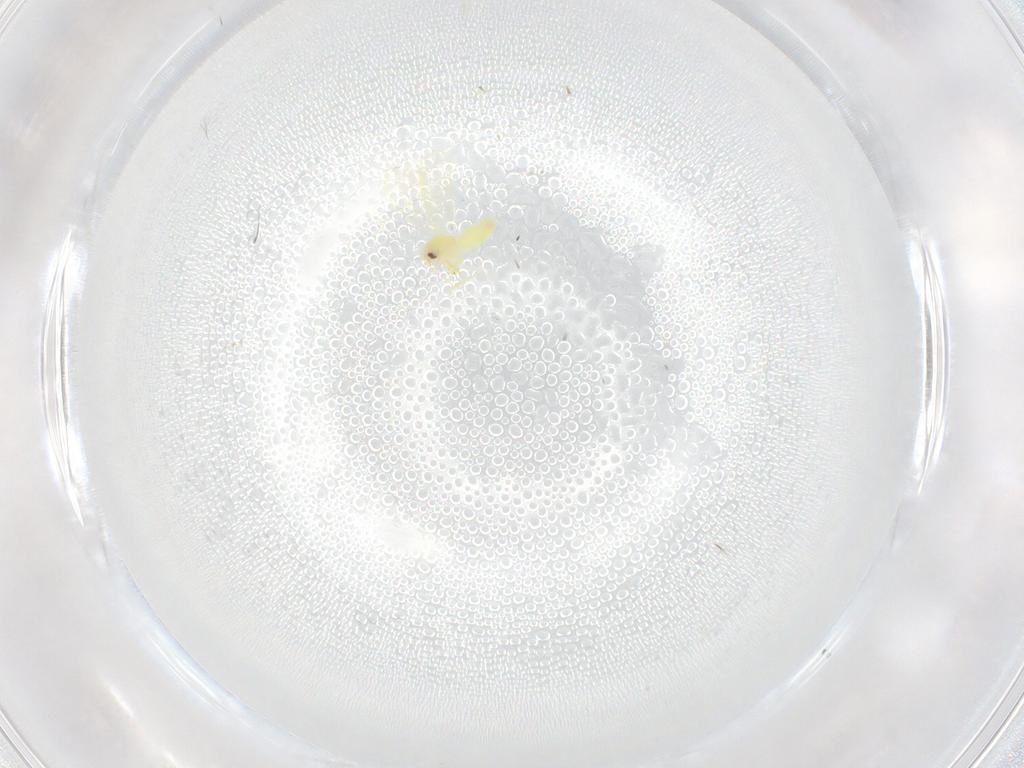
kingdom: Animalia
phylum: Arthropoda
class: Insecta
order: Hemiptera
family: Aleyrodidae
